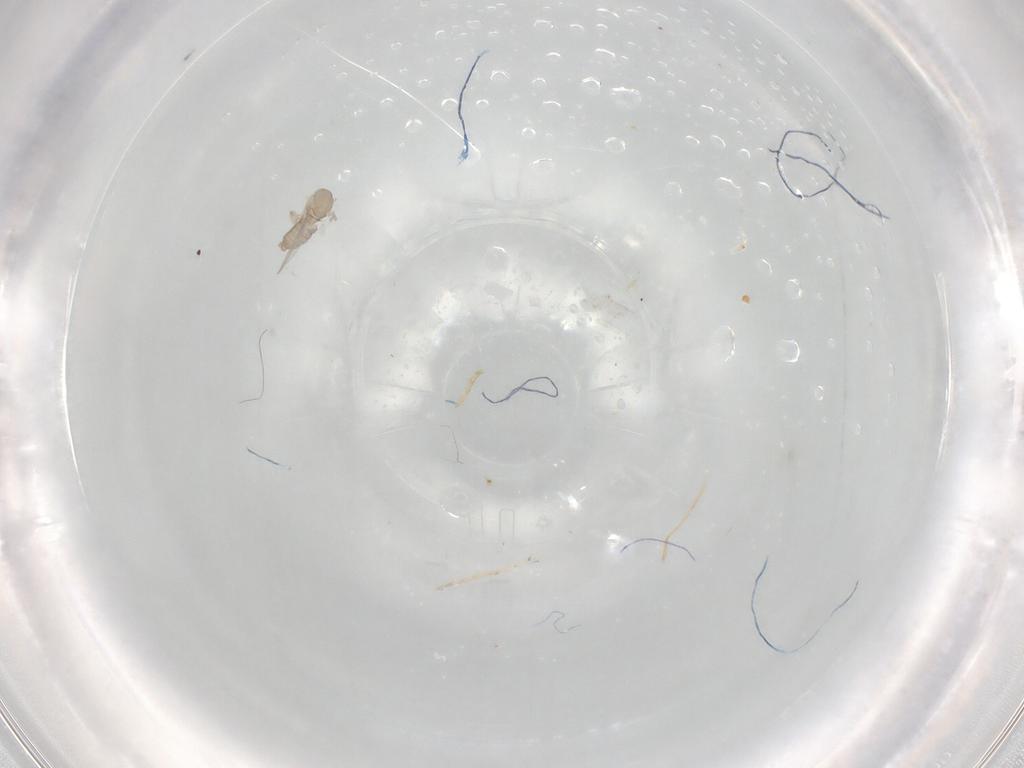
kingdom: Animalia
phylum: Arthropoda
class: Insecta
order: Diptera
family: Psychodidae
